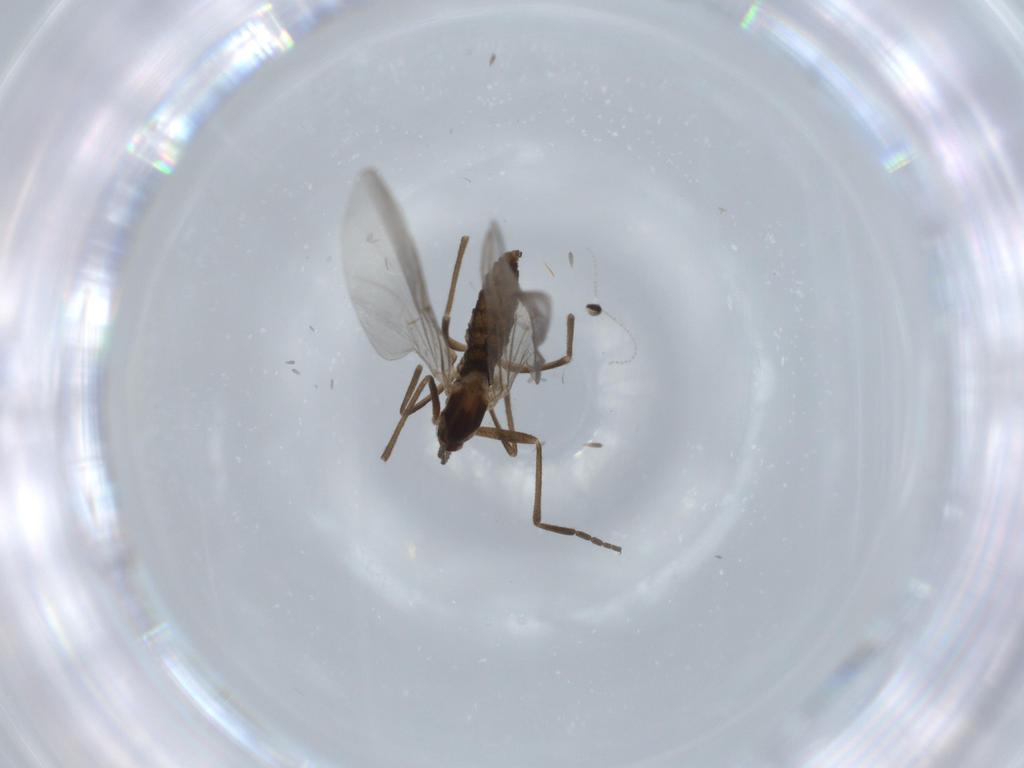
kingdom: Animalia
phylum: Arthropoda
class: Insecta
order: Diptera
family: Cecidomyiidae
